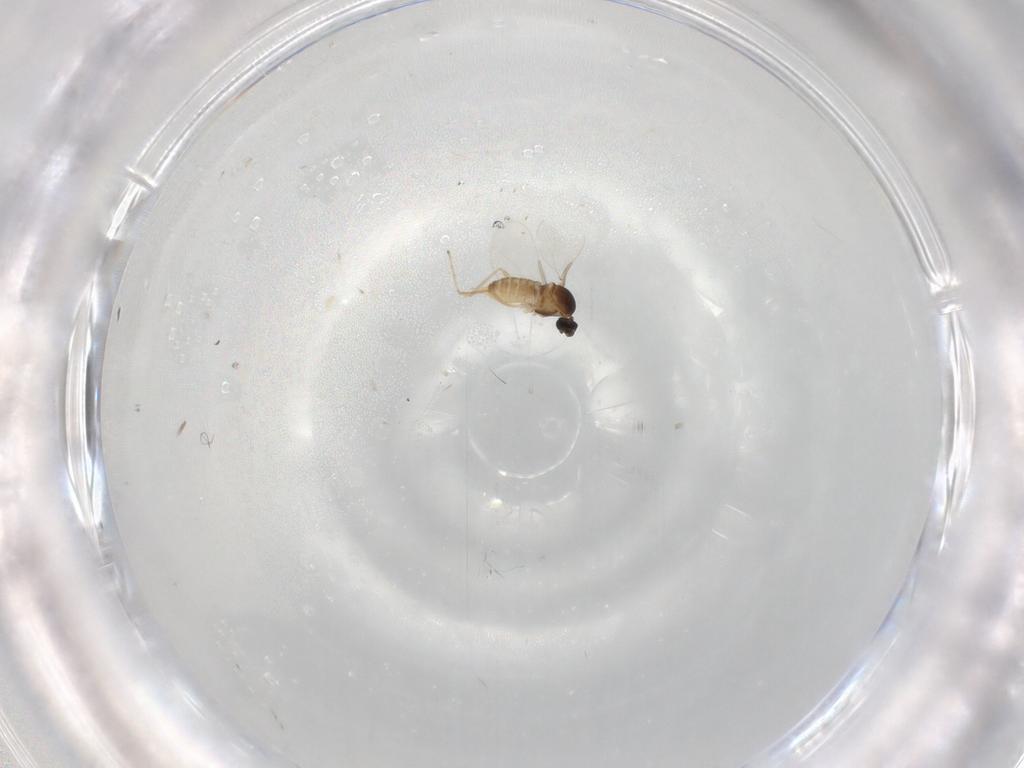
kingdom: Animalia
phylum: Arthropoda
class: Insecta
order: Diptera
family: Cecidomyiidae
